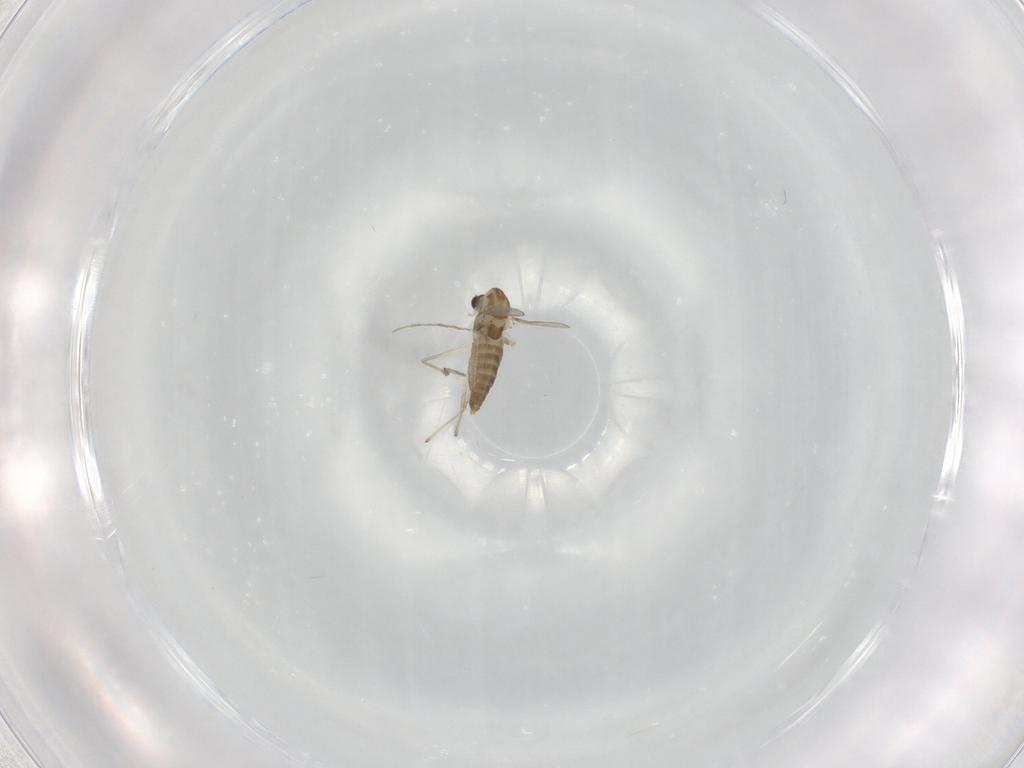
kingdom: Animalia
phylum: Arthropoda
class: Insecta
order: Diptera
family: Chironomidae
